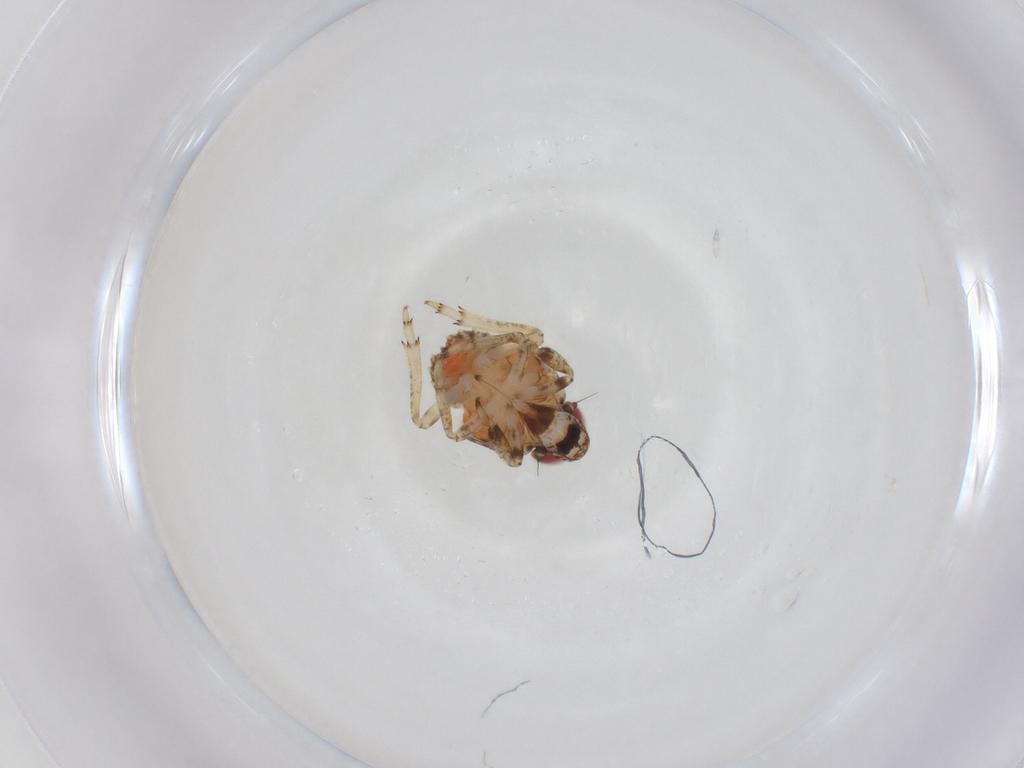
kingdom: Animalia
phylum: Arthropoda
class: Insecta
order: Hemiptera
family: Issidae
